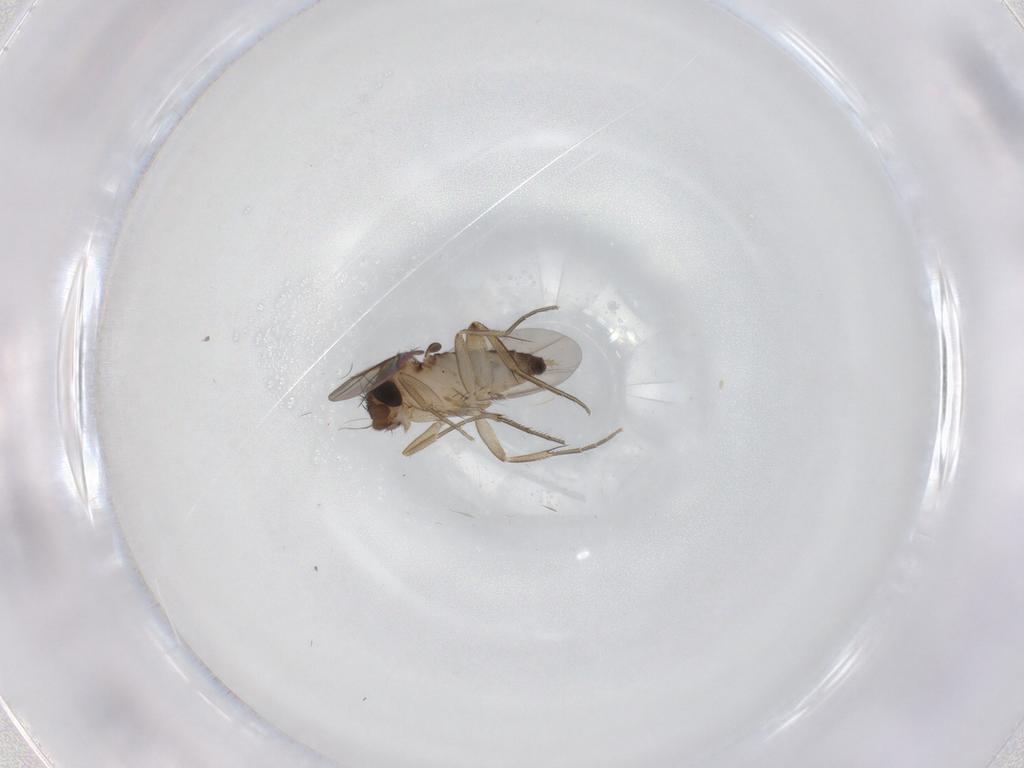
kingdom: Animalia
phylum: Arthropoda
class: Insecta
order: Diptera
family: Phoridae
